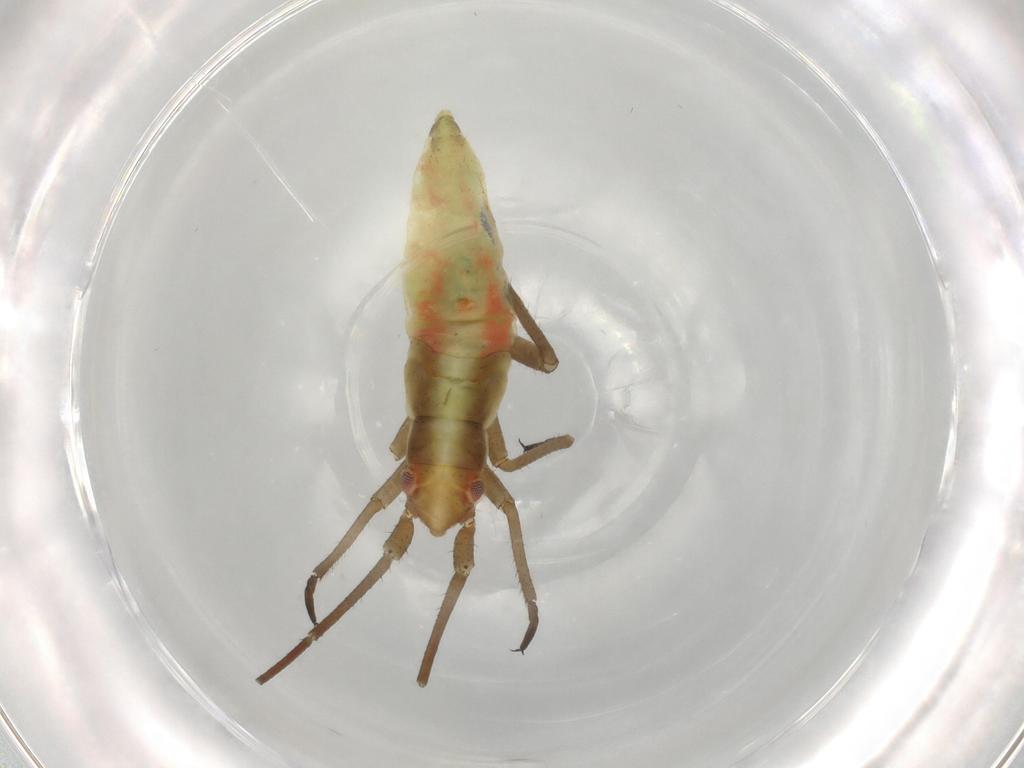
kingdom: Animalia
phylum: Arthropoda
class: Insecta
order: Hemiptera
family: Miridae
